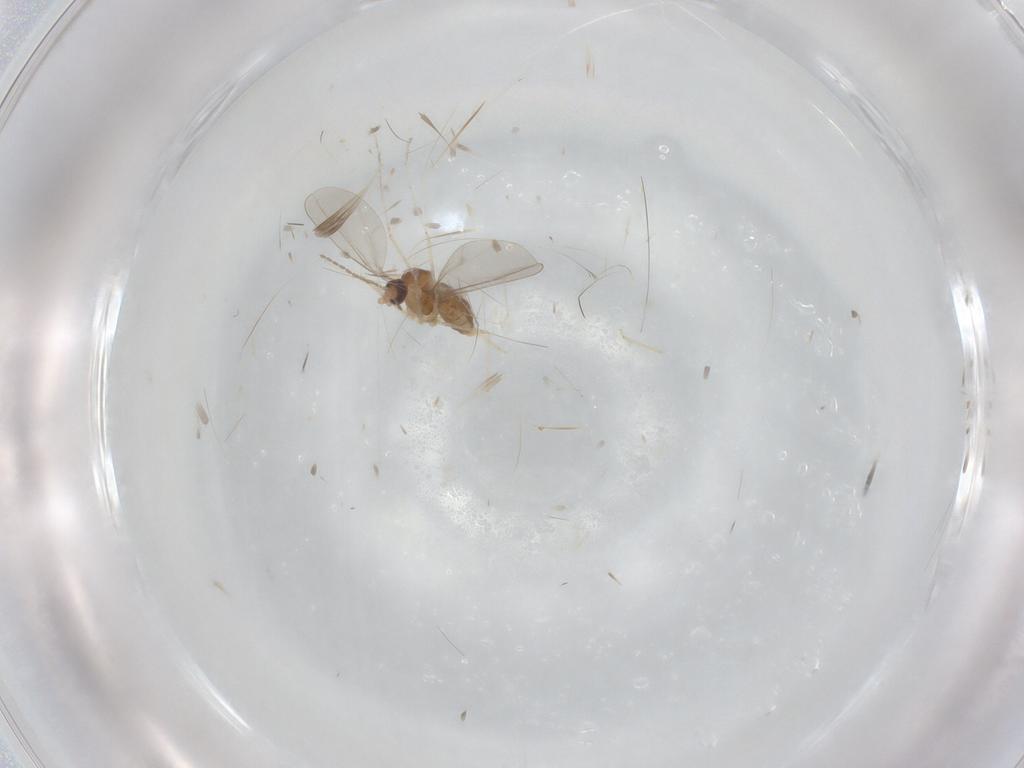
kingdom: Animalia
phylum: Arthropoda
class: Insecta
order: Diptera
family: Cecidomyiidae
